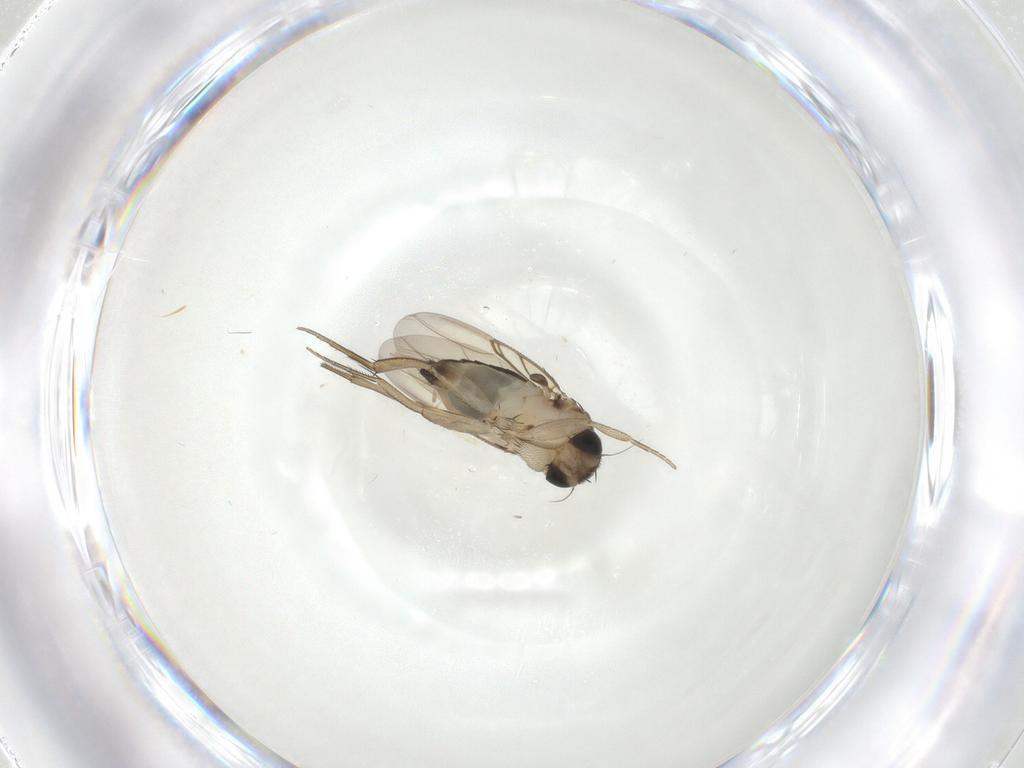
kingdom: Animalia
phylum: Arthropoda
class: Insecta
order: Diptera
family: Phoridae
